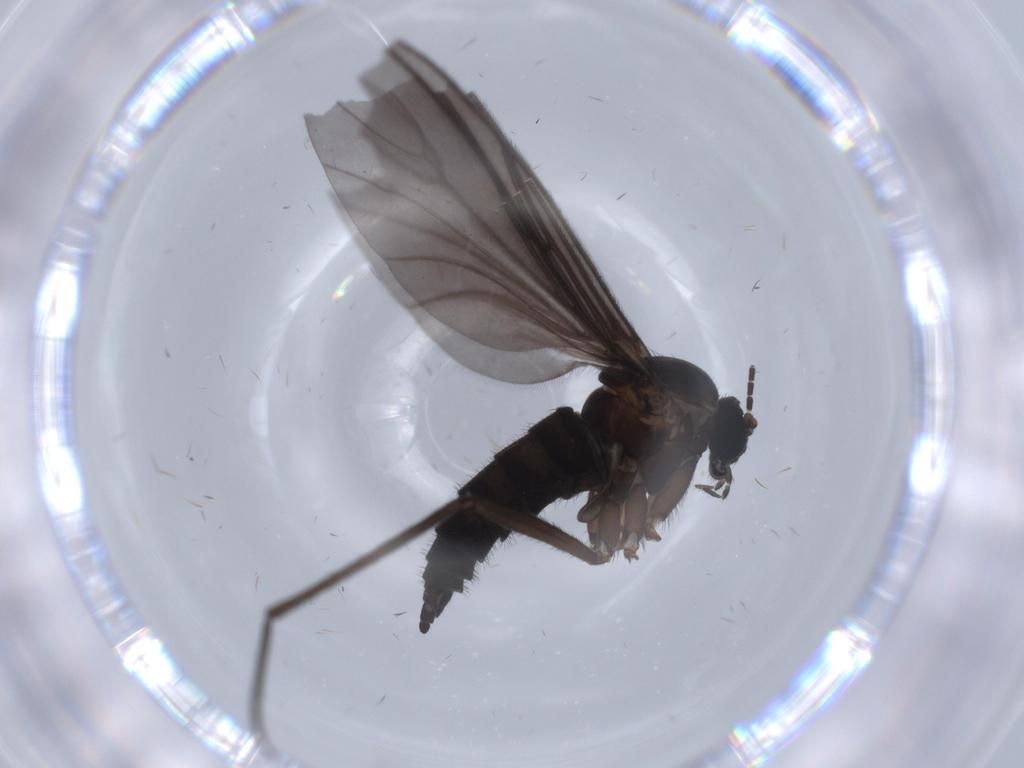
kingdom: Animalia
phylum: Arthropoda
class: Insecta
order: Diptera
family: Sciaridae
